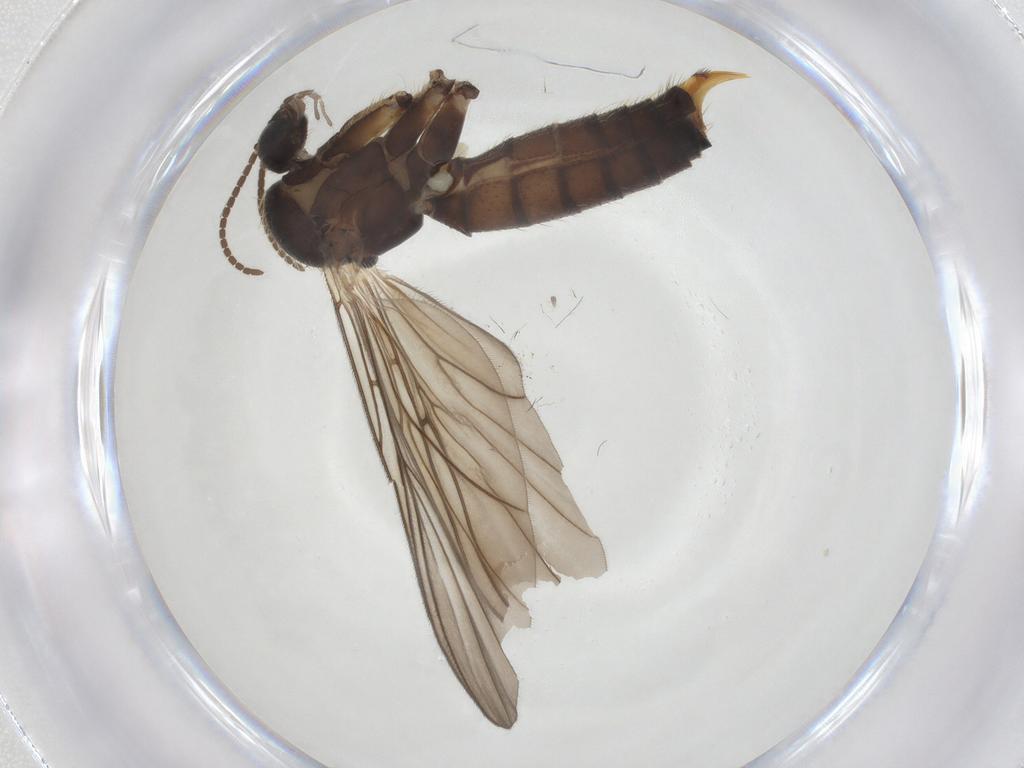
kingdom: Animalia
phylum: Arthropoda
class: Insecta
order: Diptera
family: Mycetophilidae
